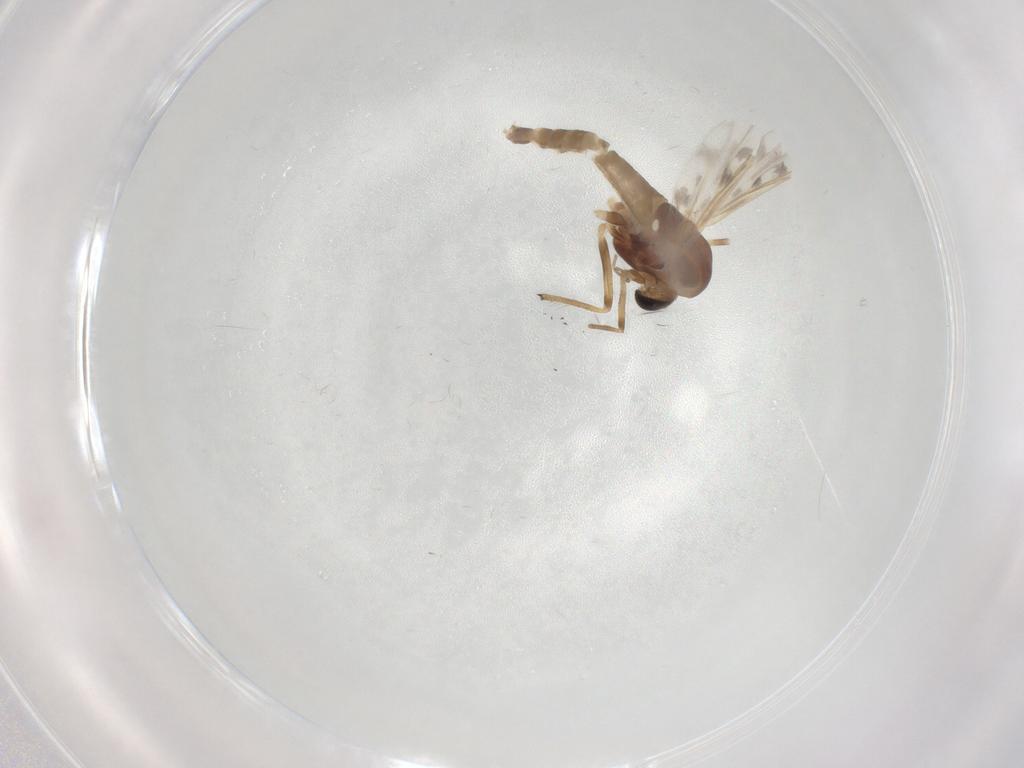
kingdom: Animalia
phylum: Arthropoda
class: Insecta
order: Diptera
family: Chironomidae
